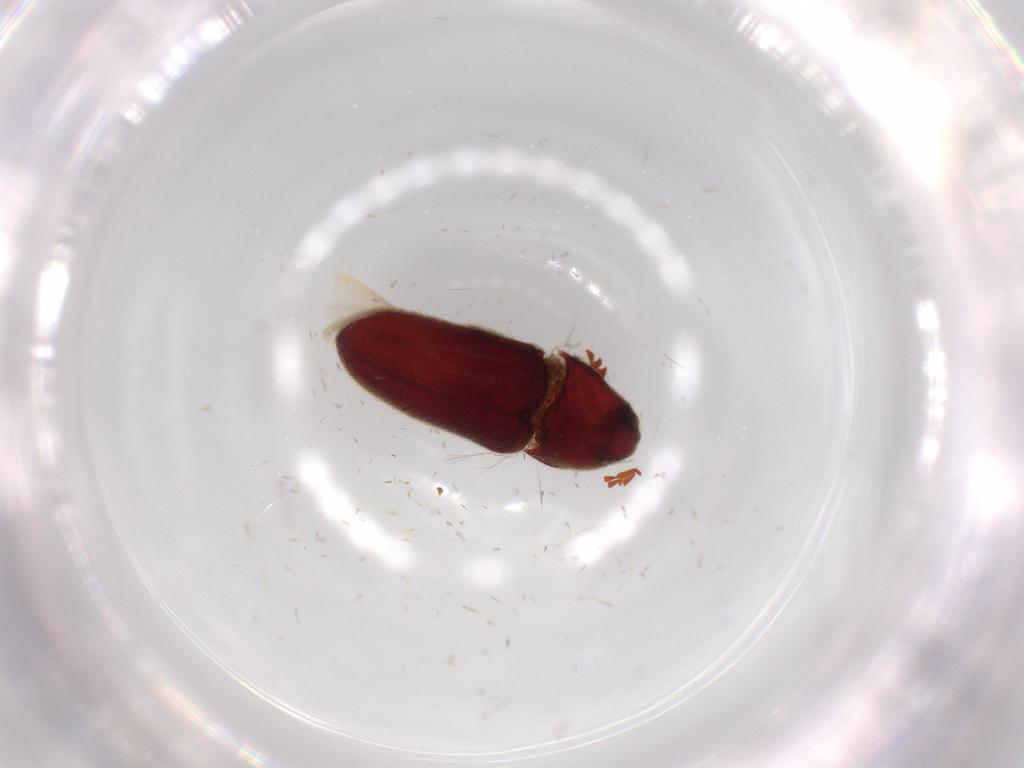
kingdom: Animalia
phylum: Arthropoda
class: Insecta
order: Coleoptera
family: Ptinidae
